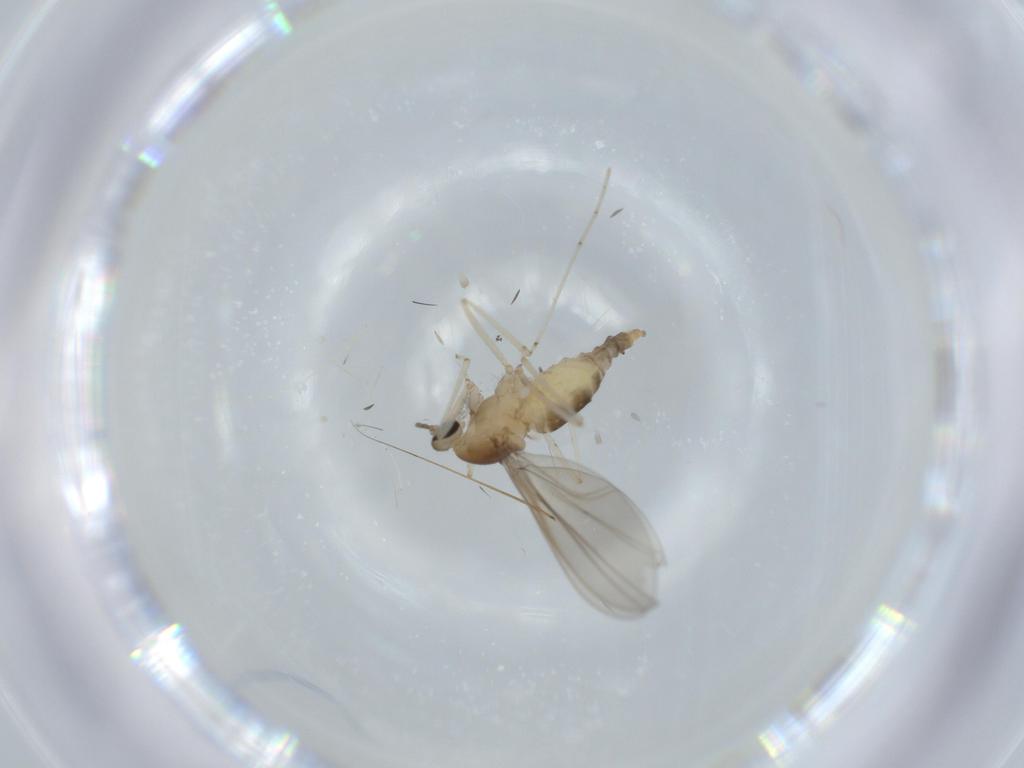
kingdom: Animalia
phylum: Arthropoda
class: Insecta
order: Diptera
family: Cecidomyiidae
